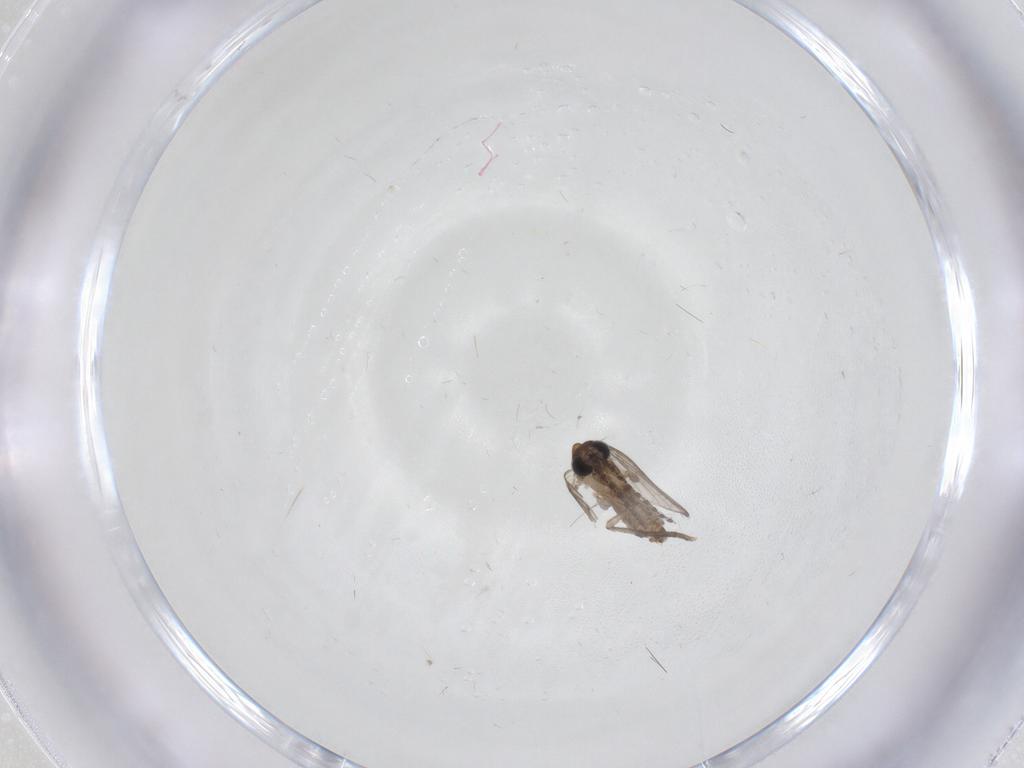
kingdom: Animalia
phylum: Arthropoda
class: Insecta
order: Diptera
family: Psychodidae
